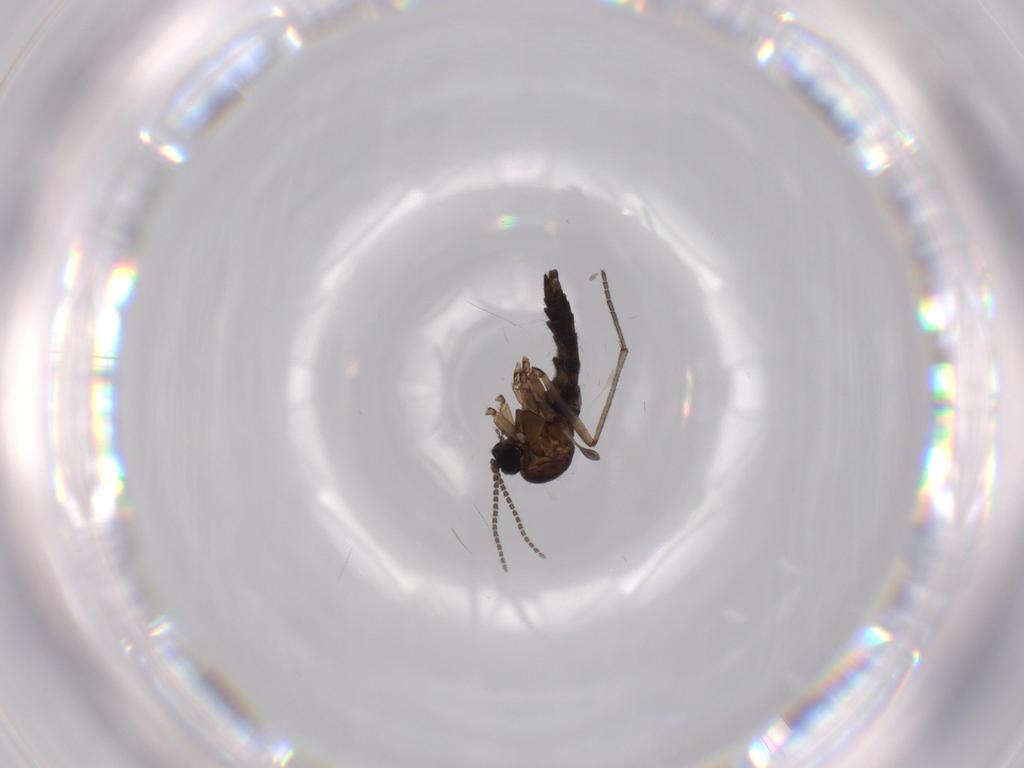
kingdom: Animalia
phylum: Arthropoda
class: Insecta
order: Diptera
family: Sciaridae
